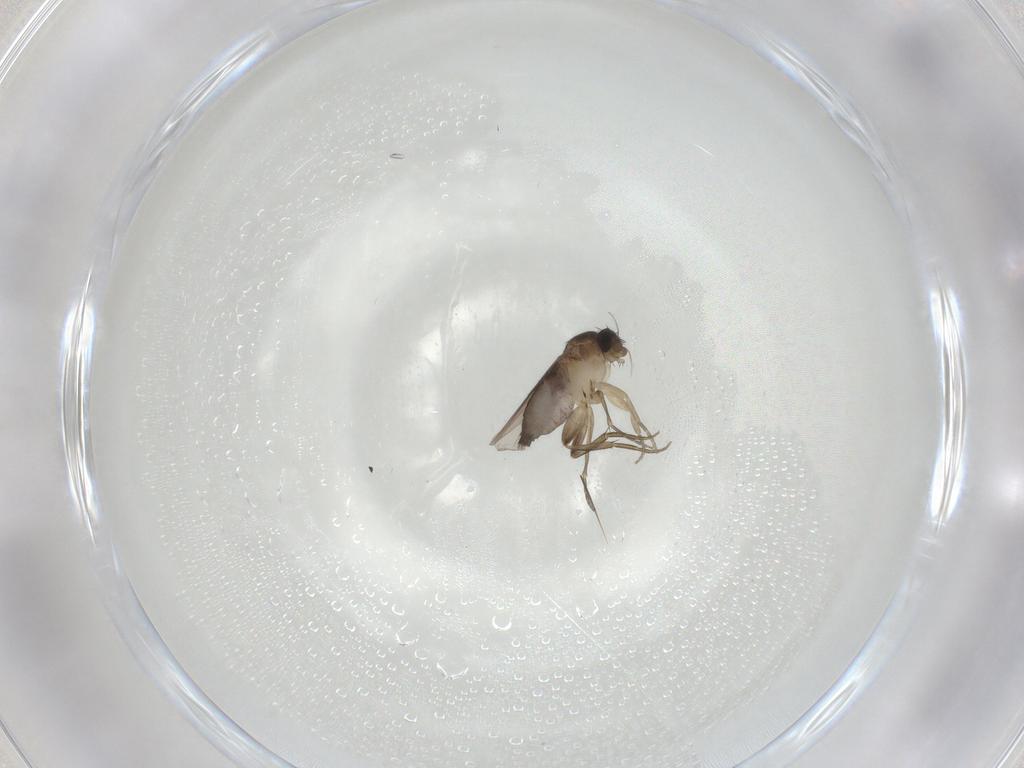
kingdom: Animalia
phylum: Arthropoda
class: Insecta
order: Diptera
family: Phoridae
